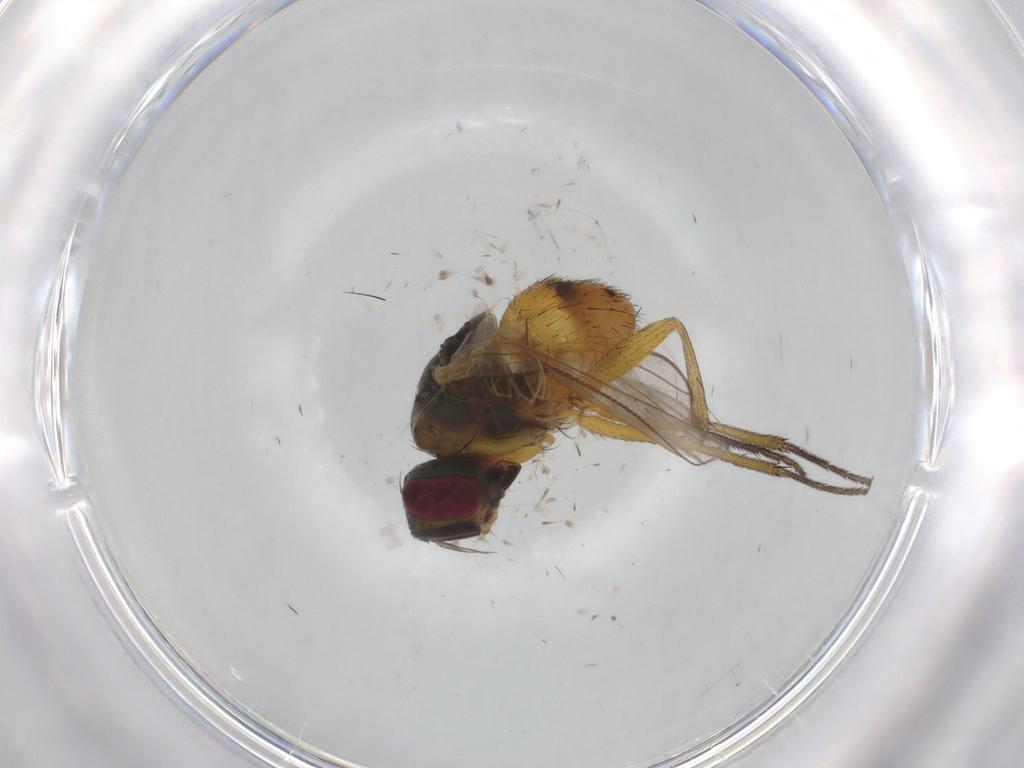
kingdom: Animalia
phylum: Arthropoda
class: Insecta
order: Diptera
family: Muscidae
